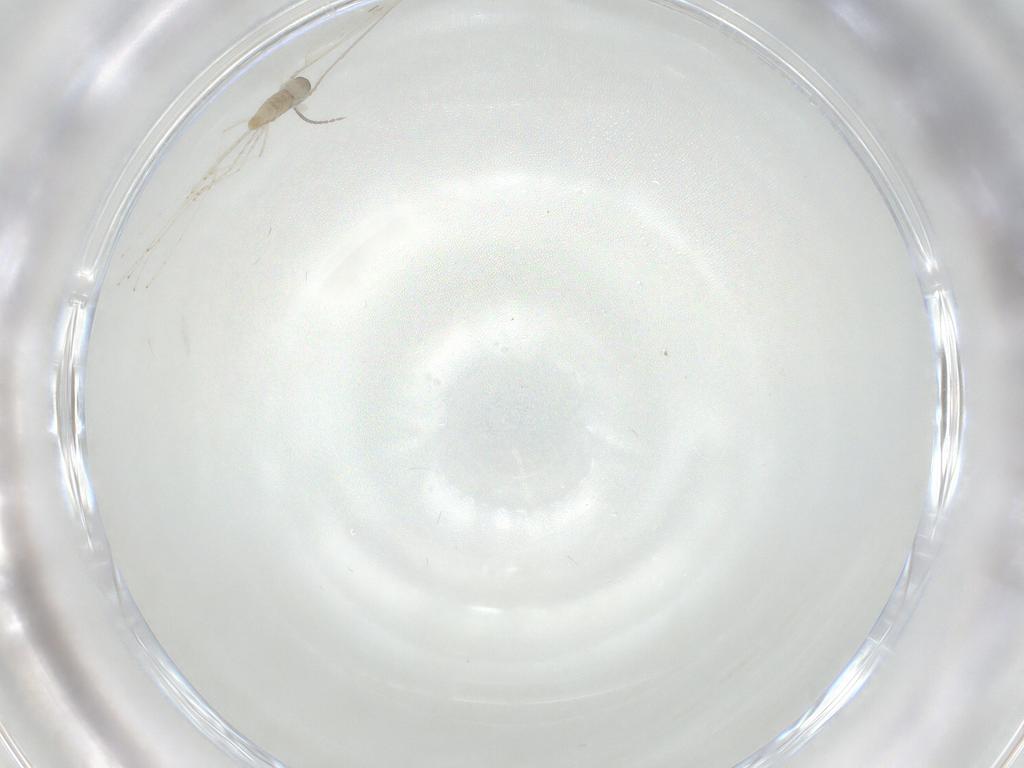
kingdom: Animalia
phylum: Arthropoda
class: Insecta
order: Diptera
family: Cecidomyiidae
